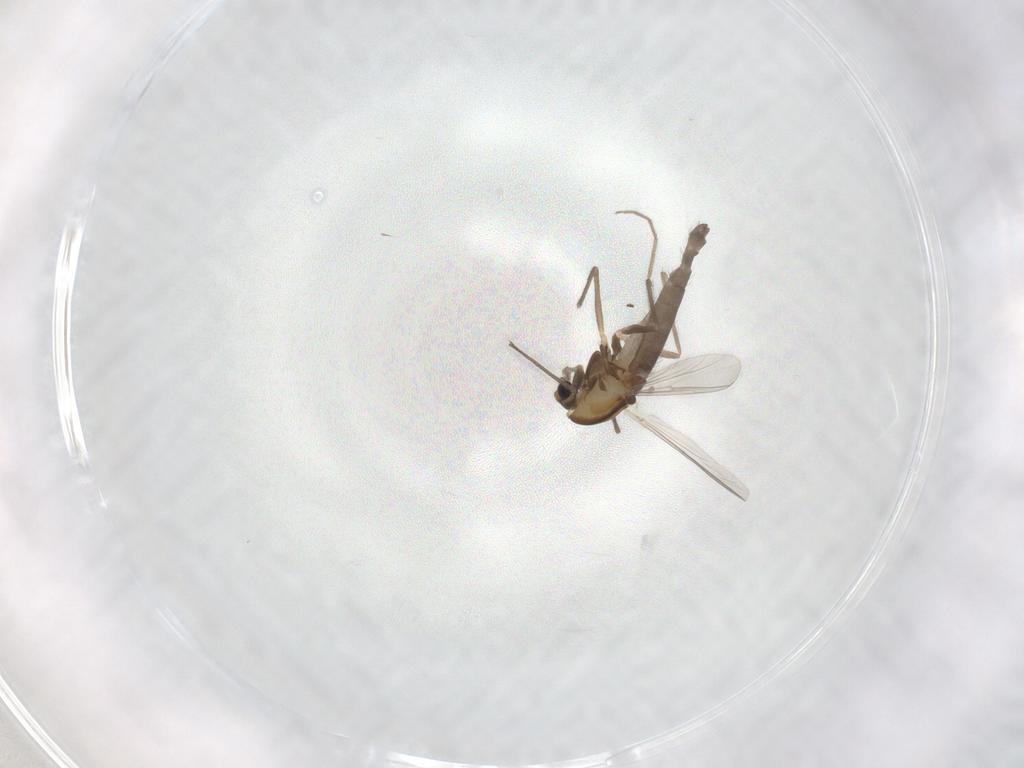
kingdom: Animalia
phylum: Arthropoda
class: Insecta
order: Diptera
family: Chironomidae
